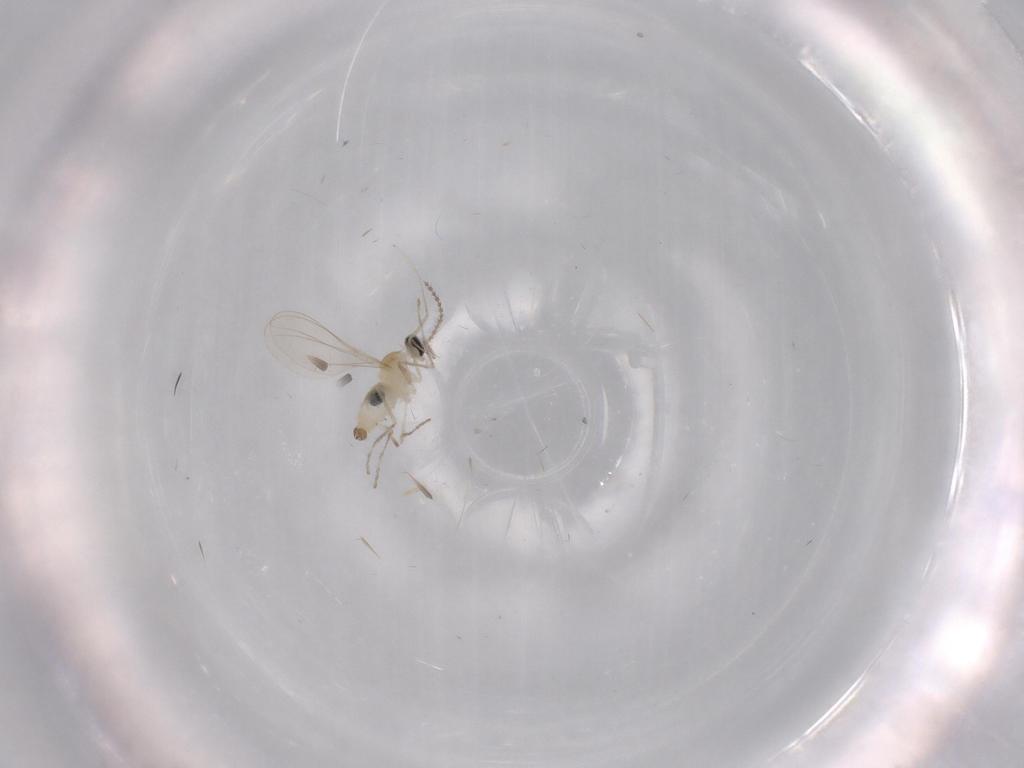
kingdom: Animalia
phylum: Arthropoda
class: Insecta
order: Diptera
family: Cecidomyiidae
